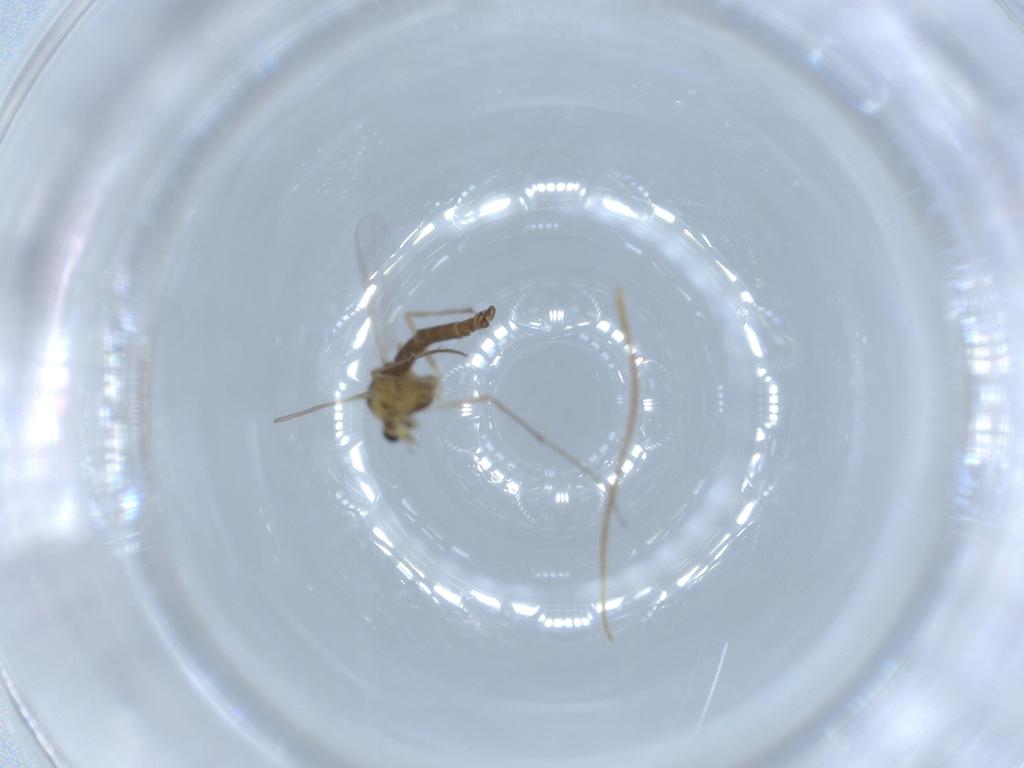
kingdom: Animalia
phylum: Arthropoda
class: Insecta
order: Diptera
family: Chironomidae
